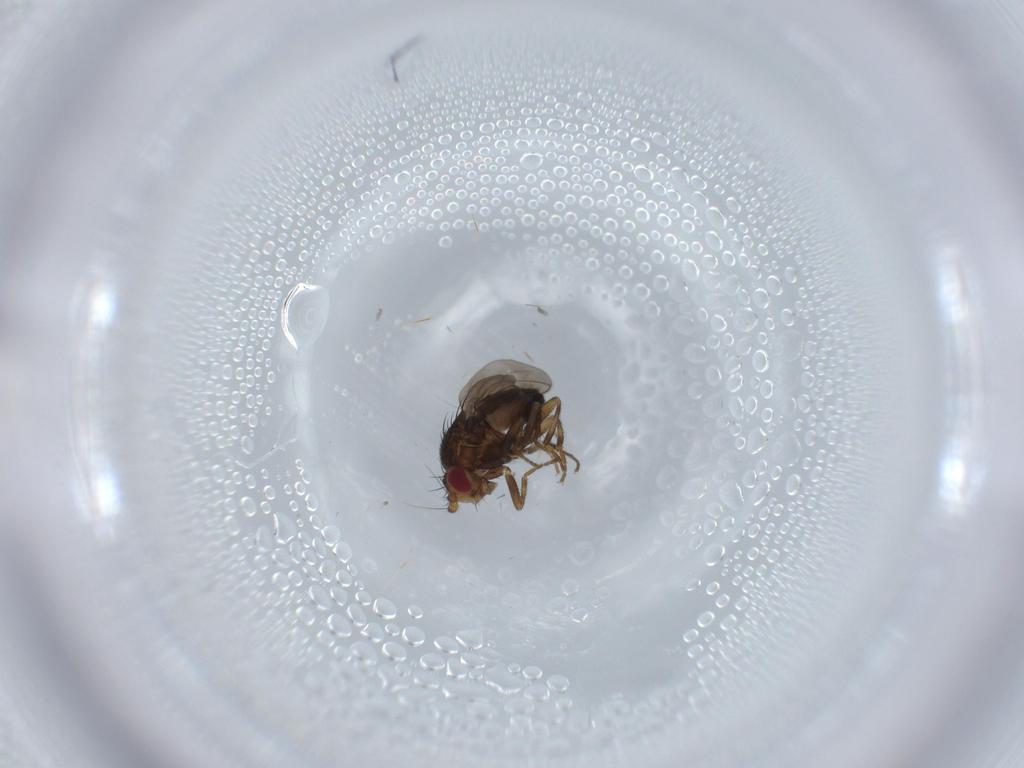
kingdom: Animalia
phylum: Arthropoda
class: Insecta
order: Diptera
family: Sphaeroceridae
